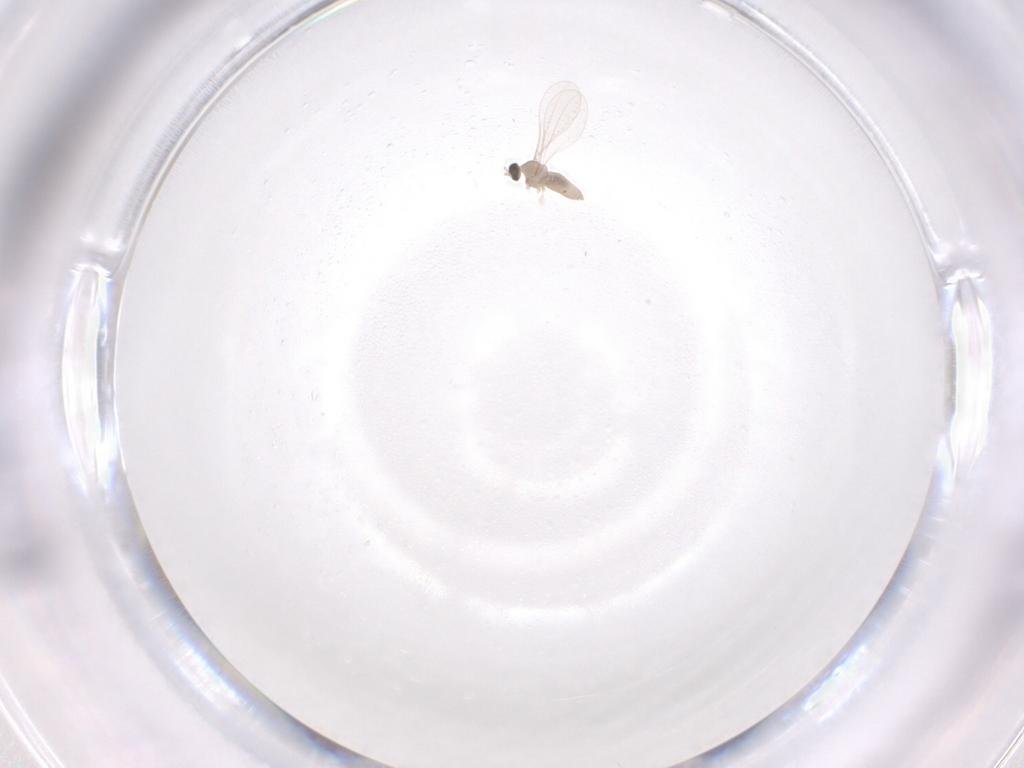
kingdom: Animalia
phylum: Arthropoda
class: Insecta
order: Diptera
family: Cecidomyiidae
